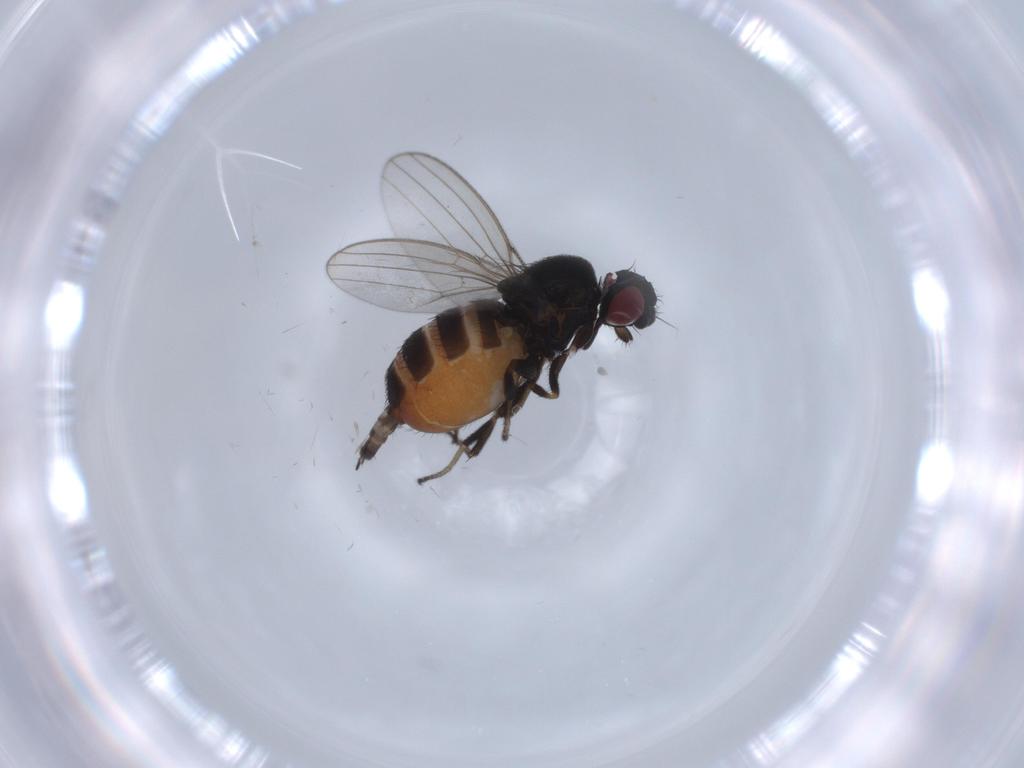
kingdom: Animalia
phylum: Arthropoda
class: Insecta
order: Diptera
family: Milichiidae
